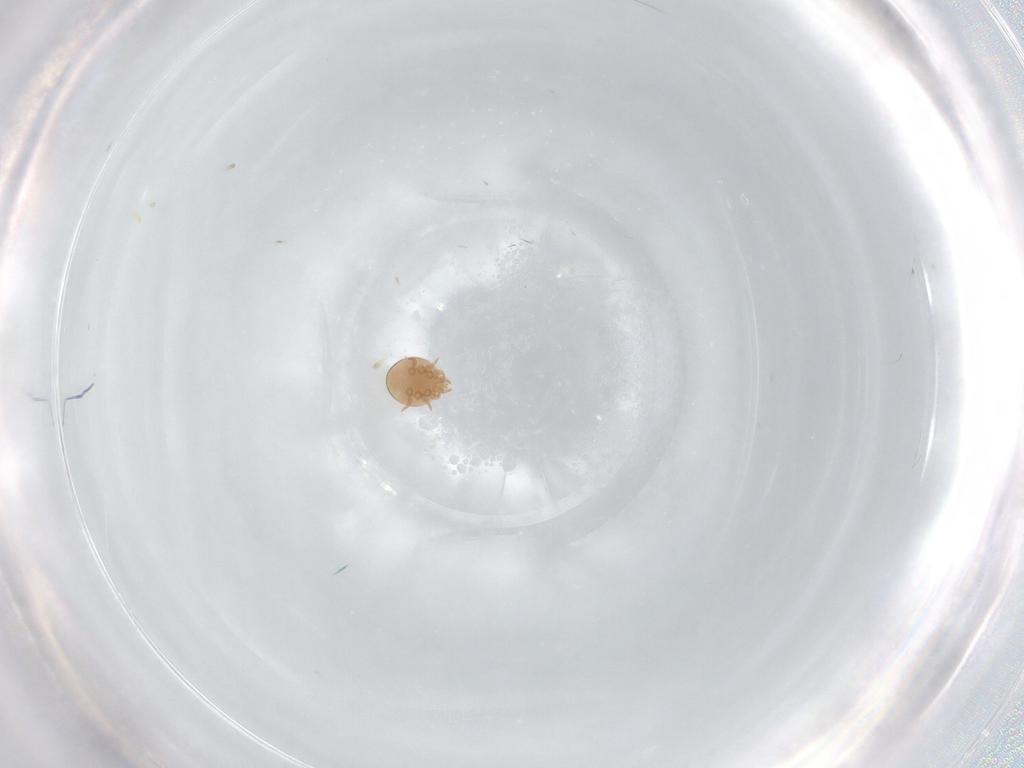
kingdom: Animalia
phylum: Arthropoda
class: Arachnida
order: Mesostigmata
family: Trematuridae
